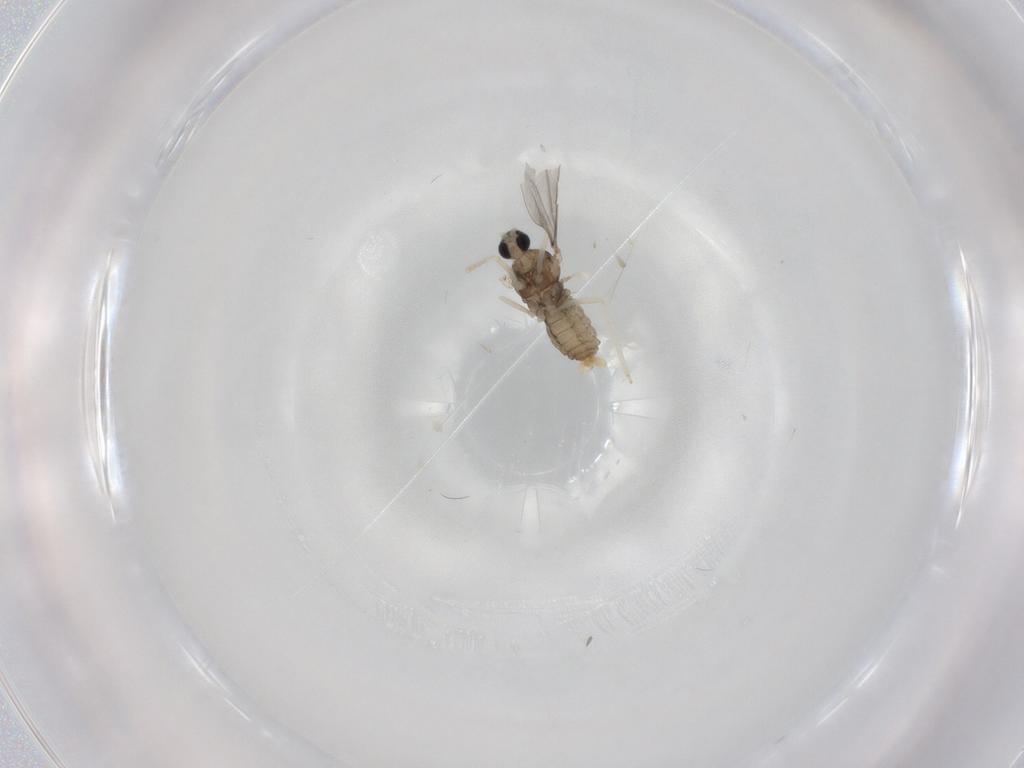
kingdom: Animalia
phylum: Arthropoda
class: Insecta
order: Diptera
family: Cecidomyiidae
